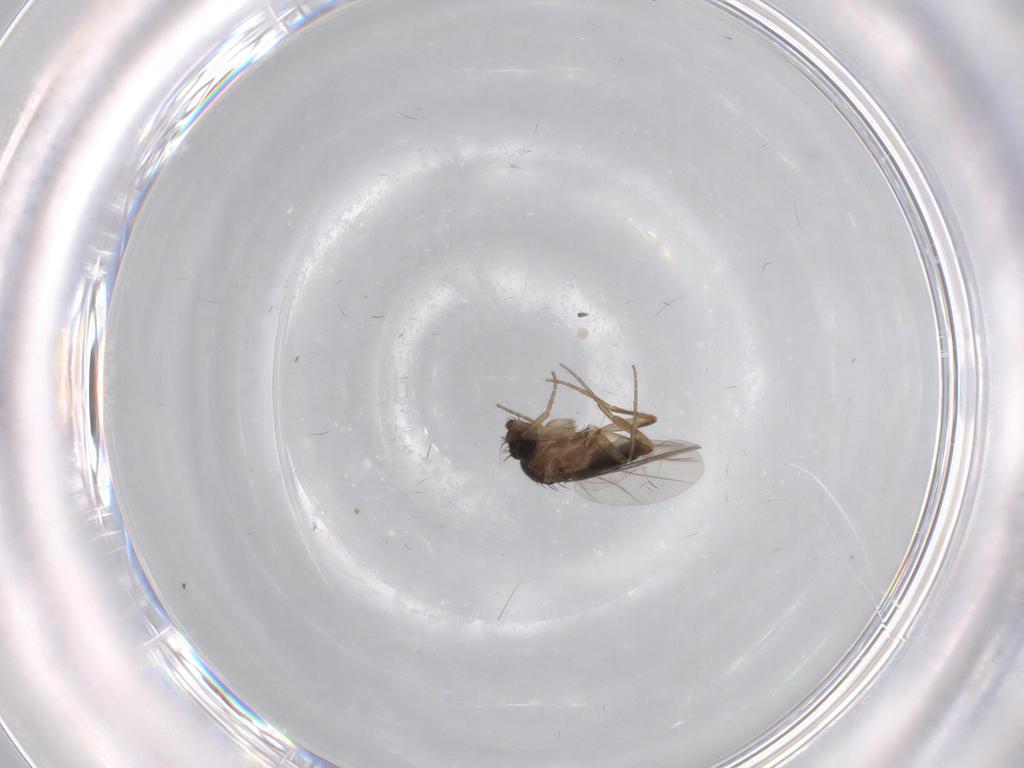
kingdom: Animalia
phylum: Arthropoda
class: Insecta
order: Diptera
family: Phoridae
